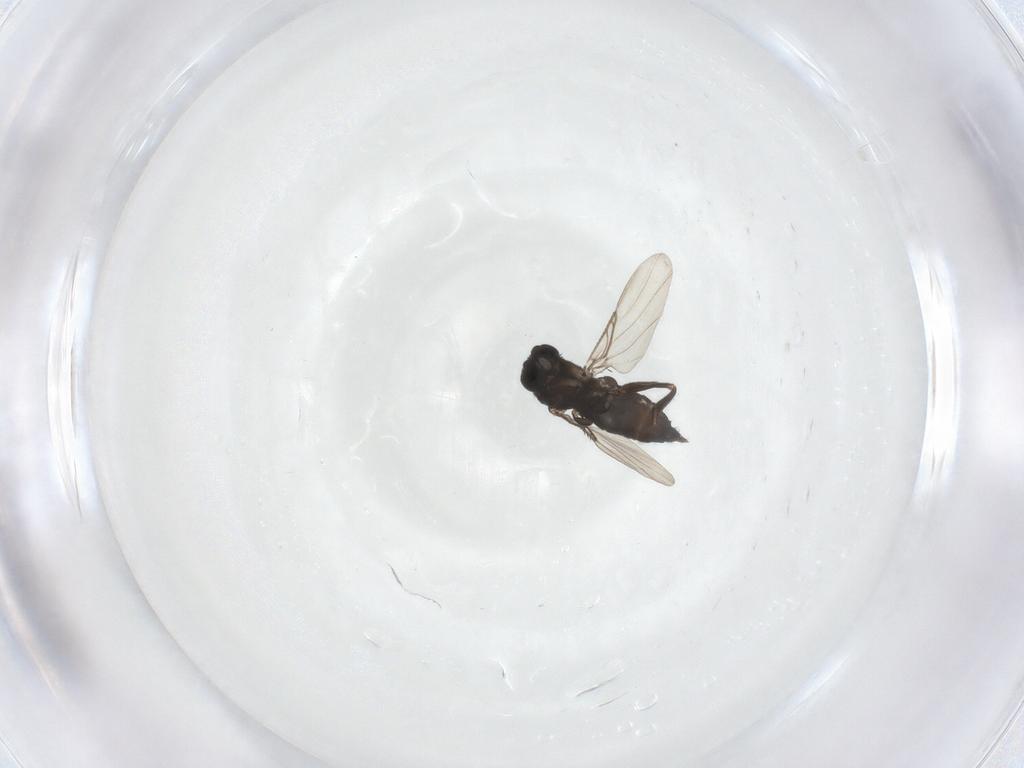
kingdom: Animalia
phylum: Arthropoda
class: Insecta
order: Diptera
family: Phoridae
